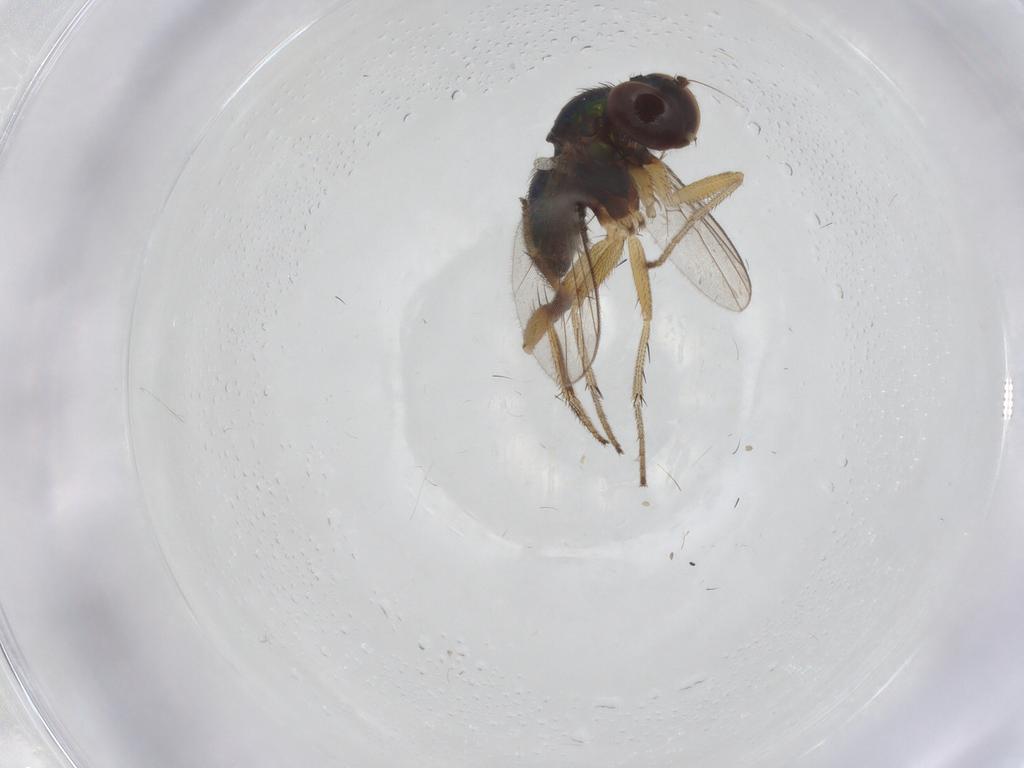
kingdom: Animalia
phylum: Arthropoda
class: Insecta
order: Diptera
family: Psychodidae
